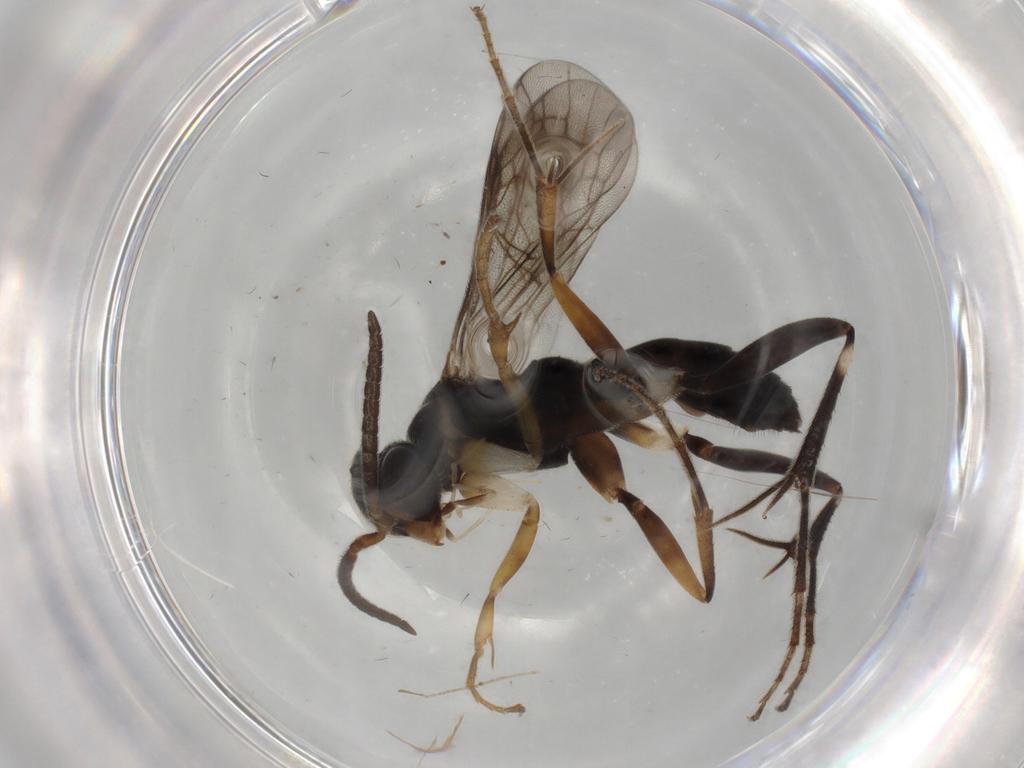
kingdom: Animalia
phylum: Arthropoda
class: Insecta
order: Hymenoptera
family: Pompilidae
